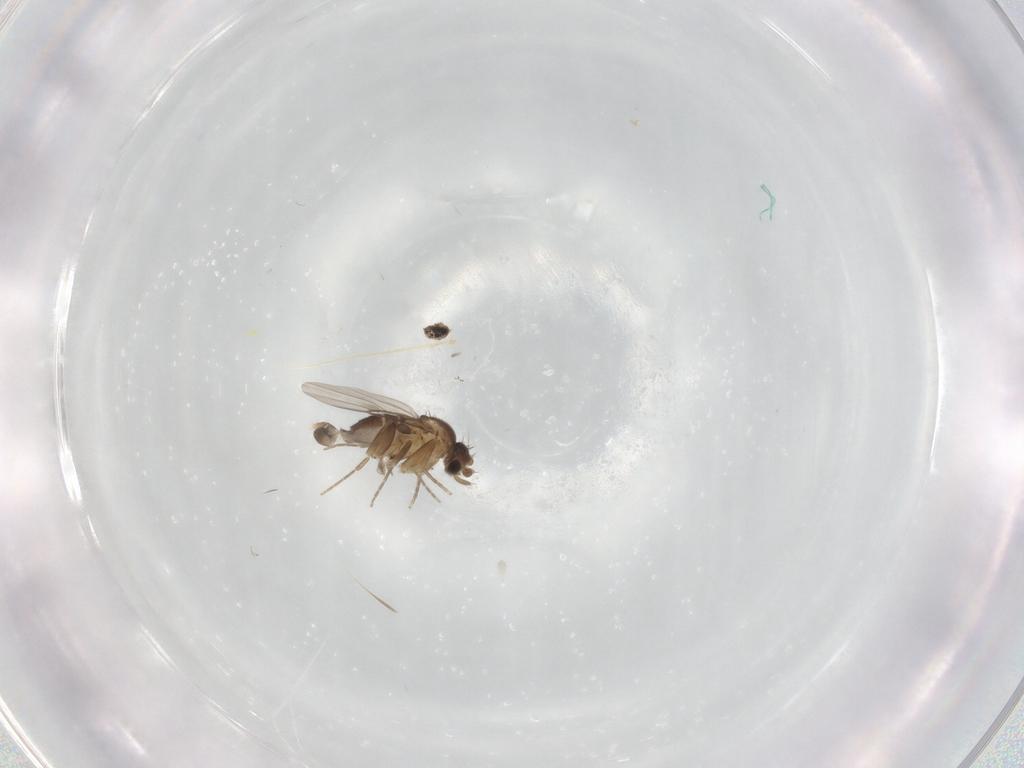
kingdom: Animalia
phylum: Arthropoda
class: Insecta
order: Diptera
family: Phoridae
